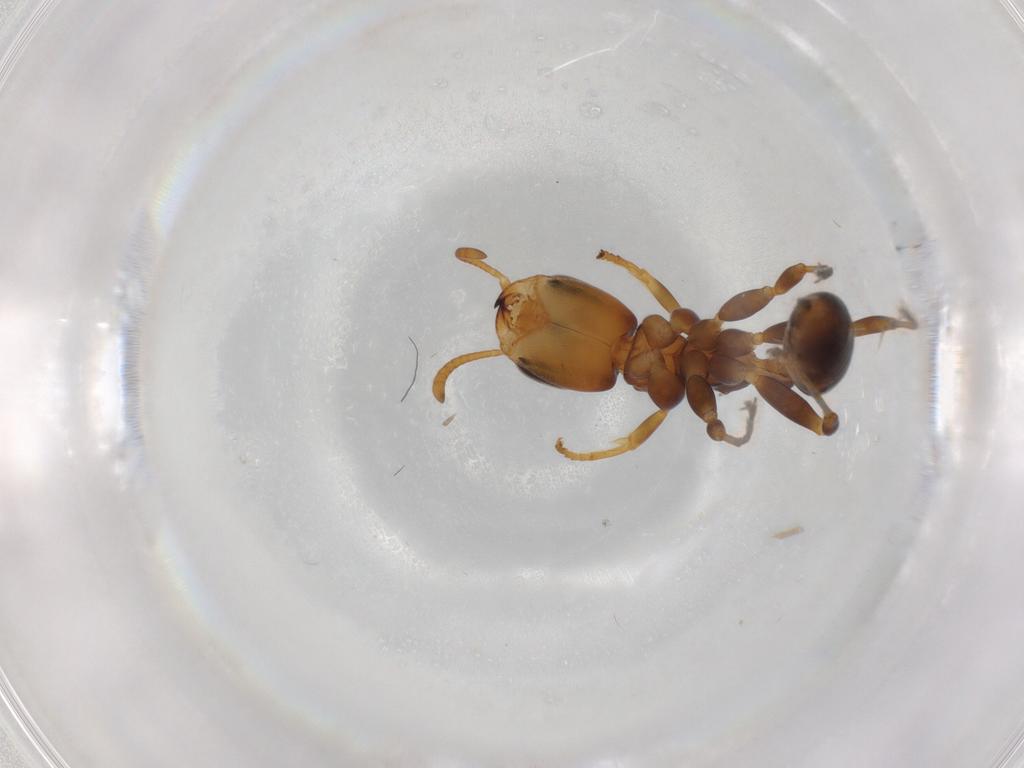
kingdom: Animalia
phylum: Arthropoda
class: Insecta
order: Hymenoptera
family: Formicidae
